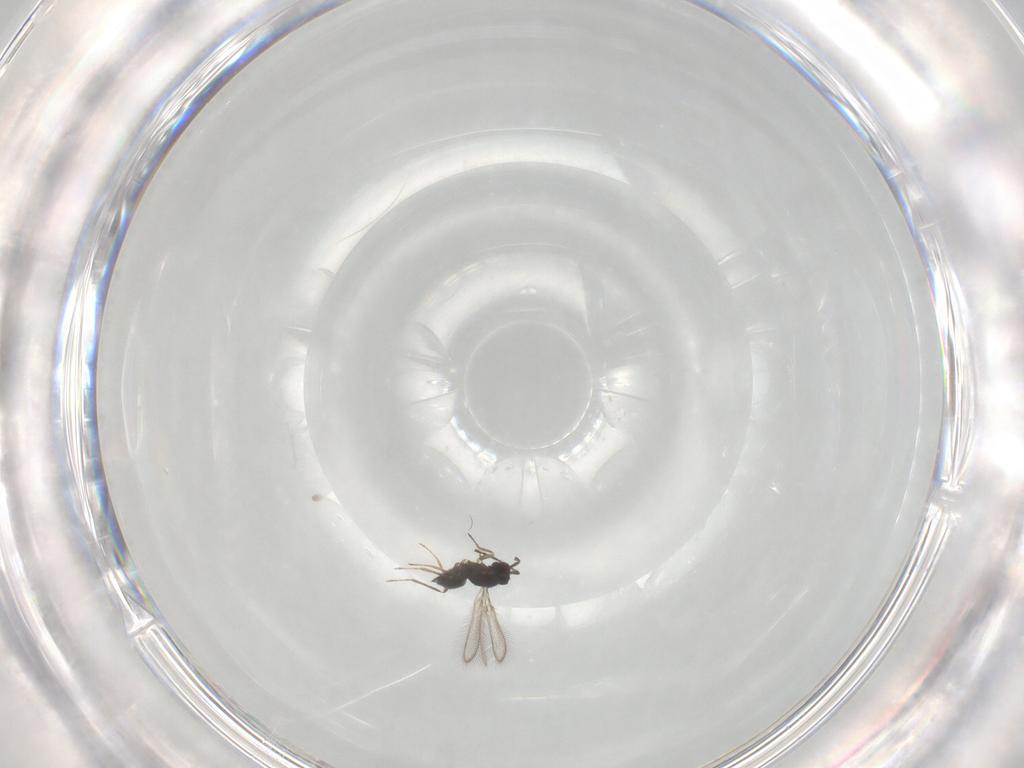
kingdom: Animalia
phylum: Arthropoda
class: Insecta
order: Hymenoptera
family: Mymaridae
